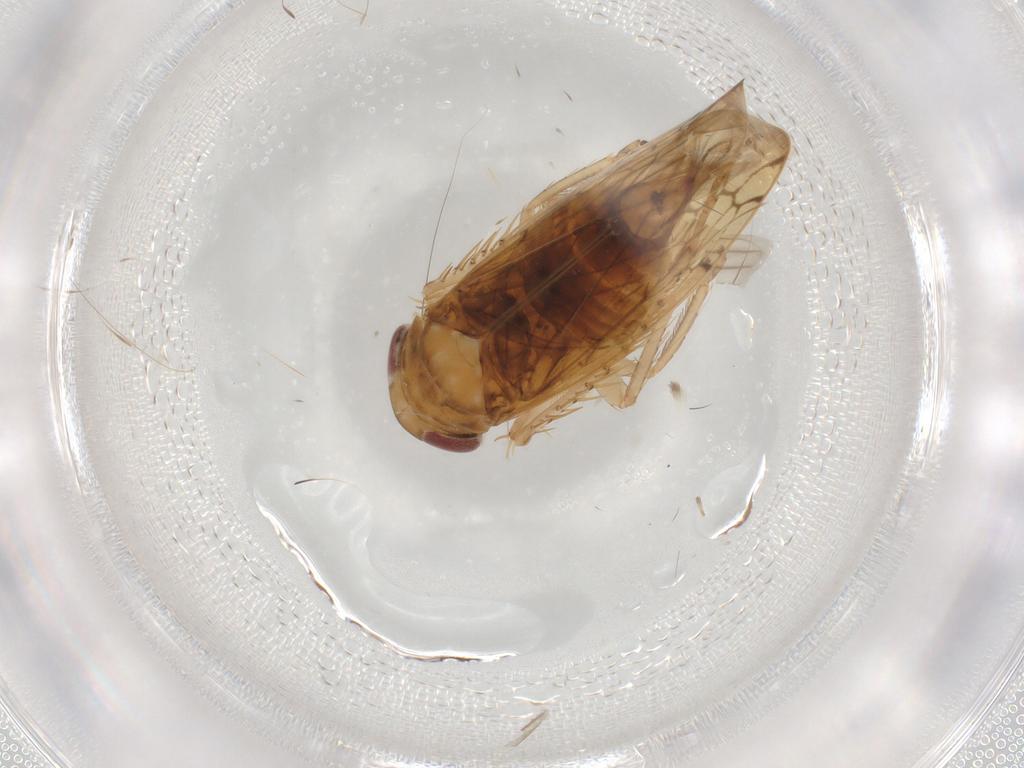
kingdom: Animalia
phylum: Arthropoda
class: Insecta
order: Hemiptera
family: Cicadellidae
